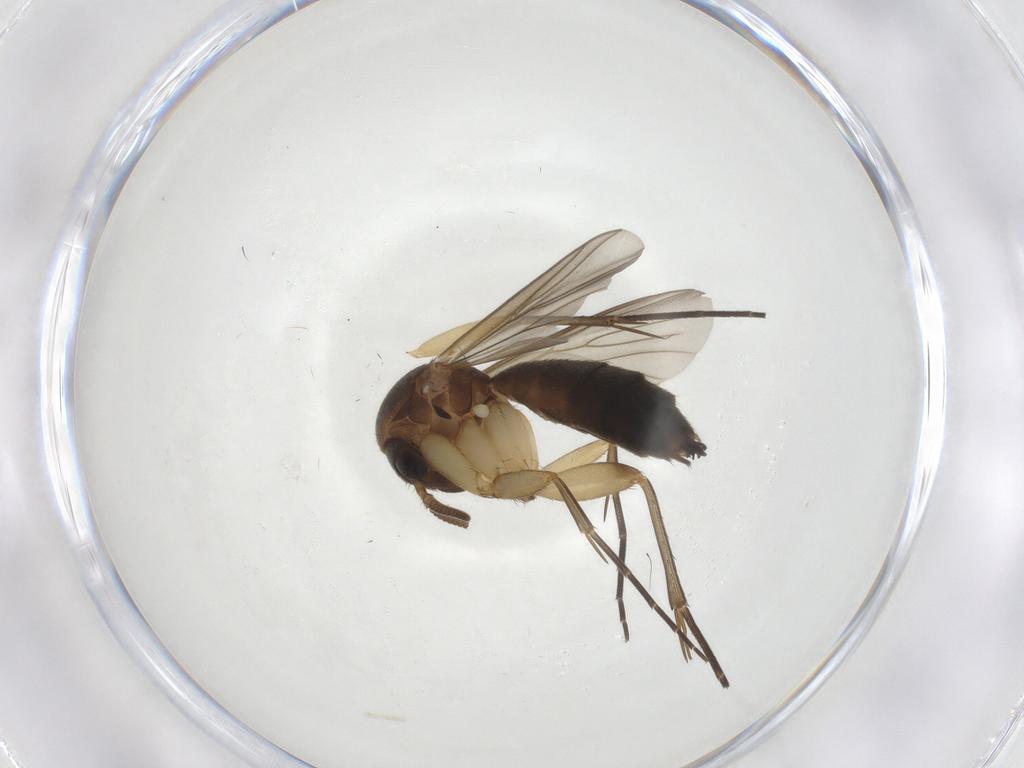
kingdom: Animalia
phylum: Arthropoda
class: Insecta
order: Diptera
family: Mycetophilidae
